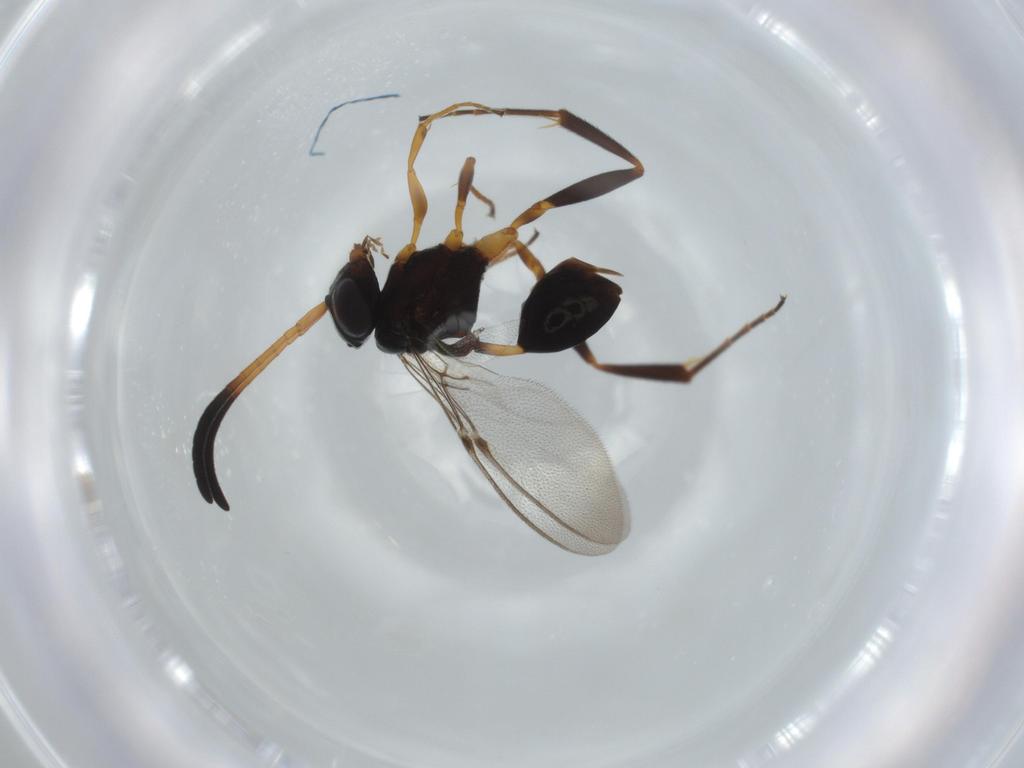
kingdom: Animalia
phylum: Arthropoda
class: Insecta
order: Hymenoptera
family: Evaniidae
